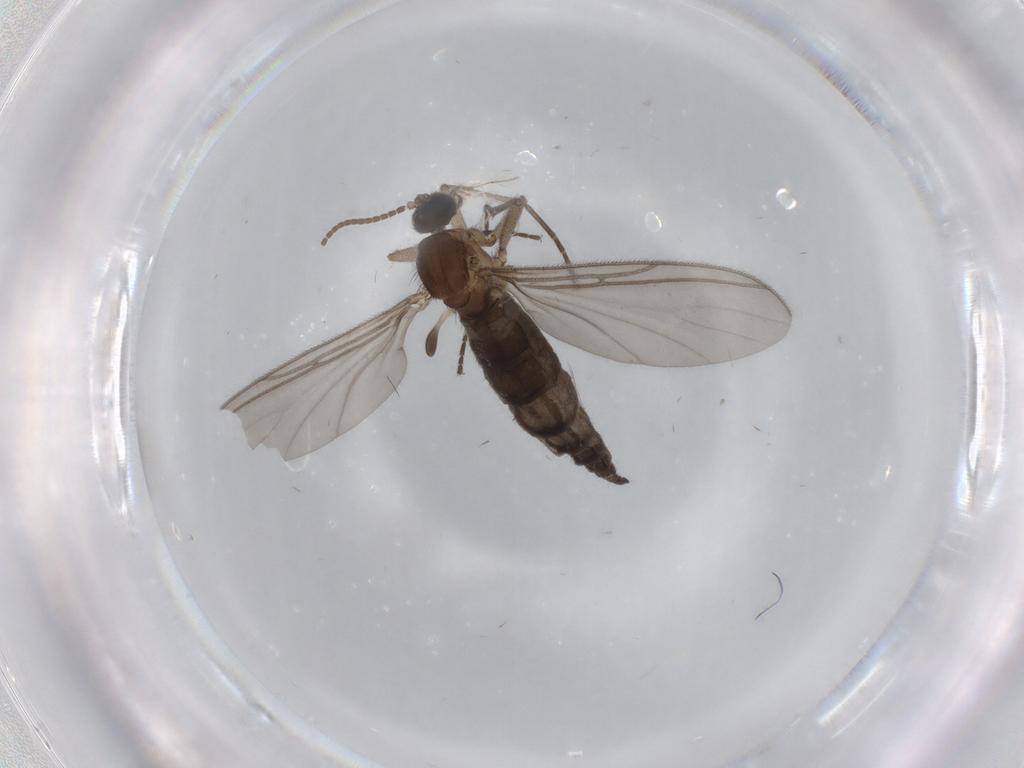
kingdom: Animalia
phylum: Arthropoda
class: Insecta
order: Diptera
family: Sciaridae
